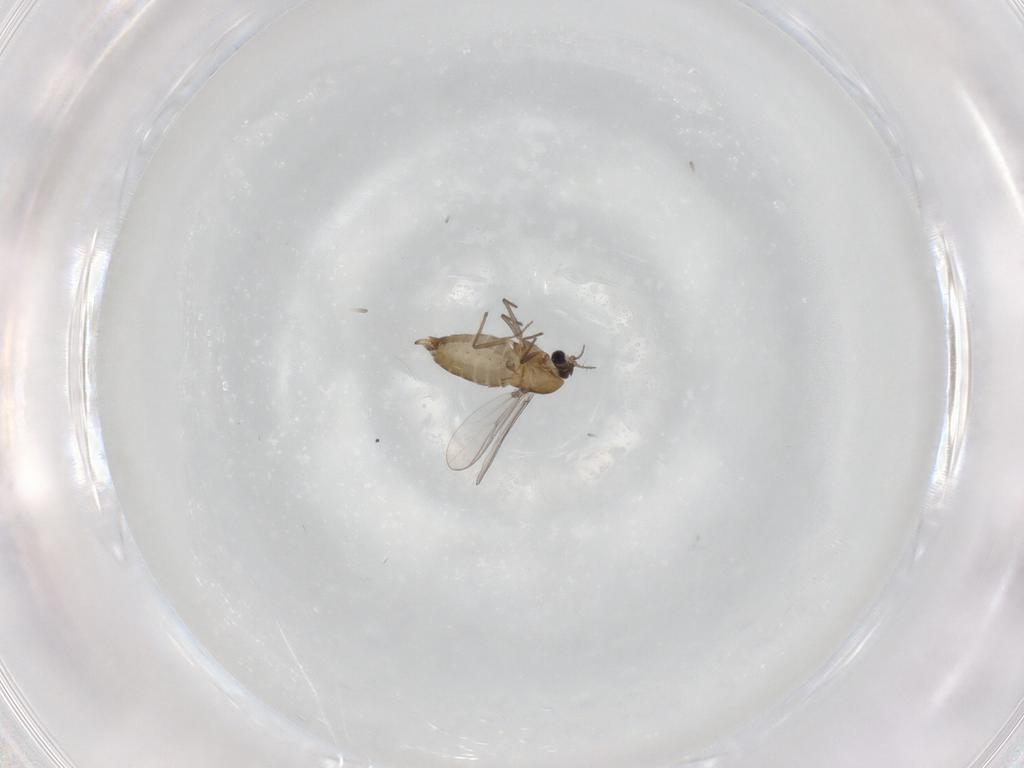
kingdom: Animalia
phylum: Arthropoda
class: Insecta
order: Diptera
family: Chironomidae
